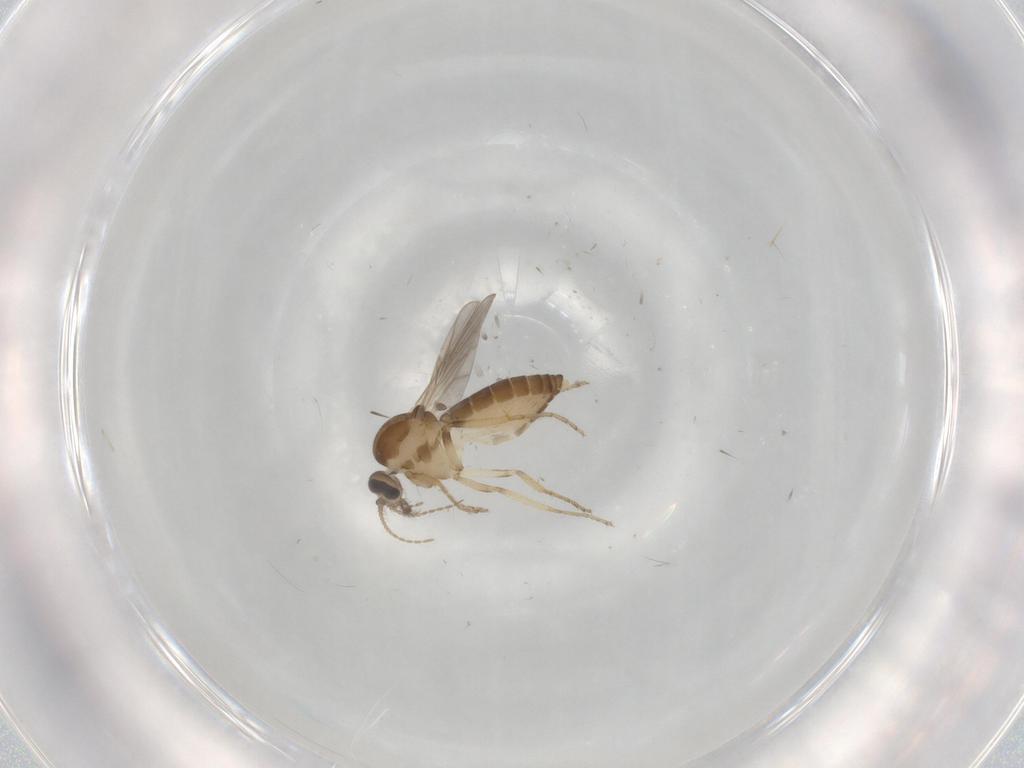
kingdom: Animalia
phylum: Arthropoda
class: Insecta
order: Diptera
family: Ceratopogonidae
